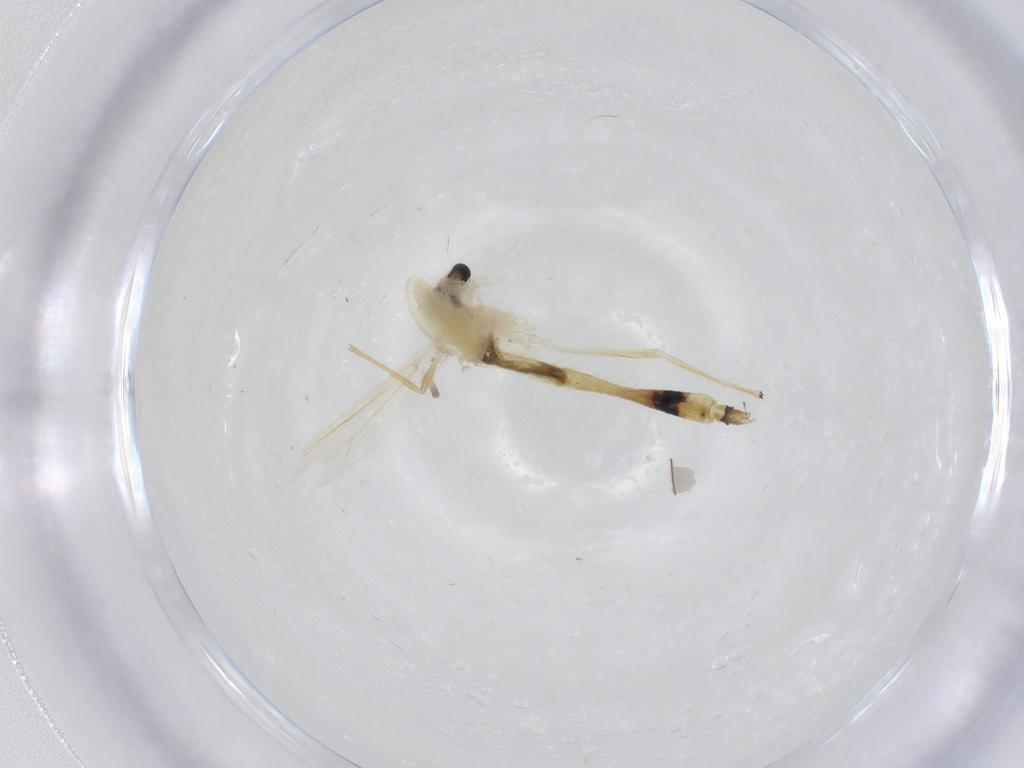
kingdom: Animalia
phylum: Arthropoda
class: Insecta
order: Diptera
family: Chironomidae
